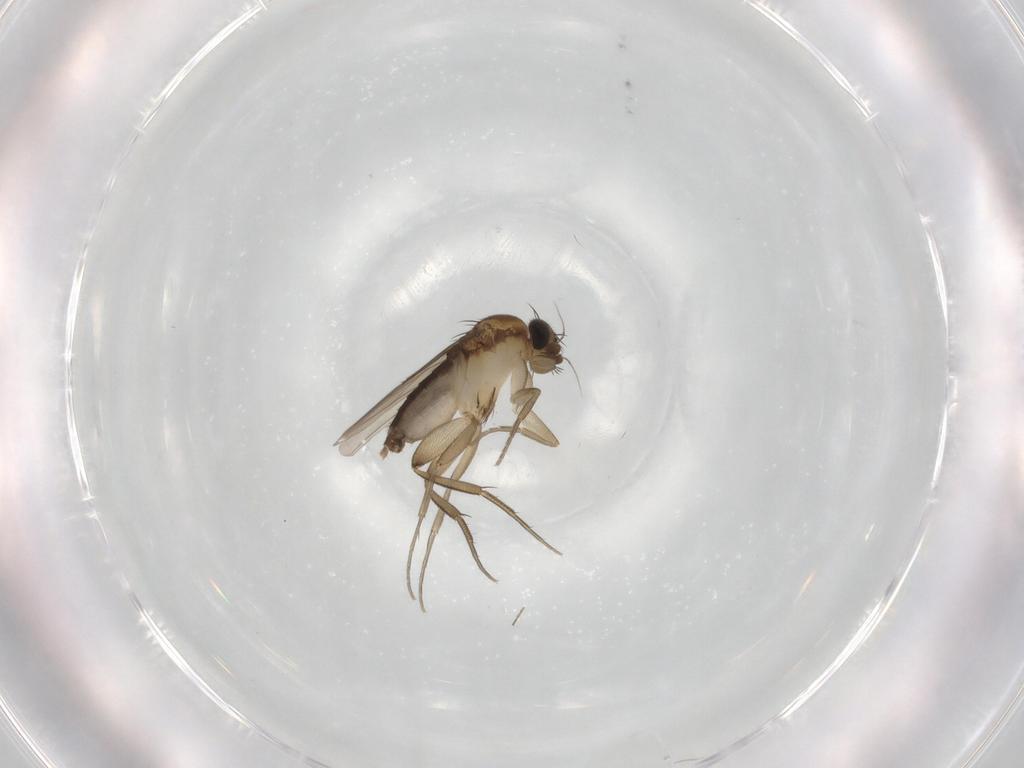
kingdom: Animalia
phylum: Arthropoda
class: Insecta
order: Diptera
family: Phoridae
